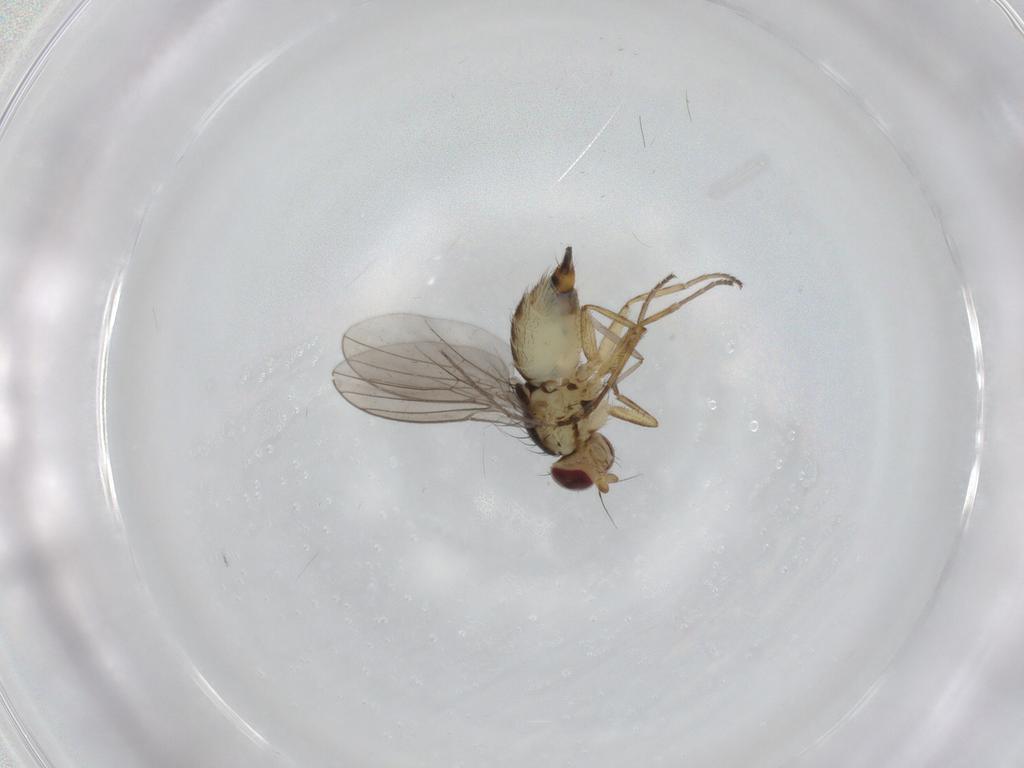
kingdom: Animalia
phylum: Arthropoda
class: Insecta
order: Diptera
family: Chironomidae
